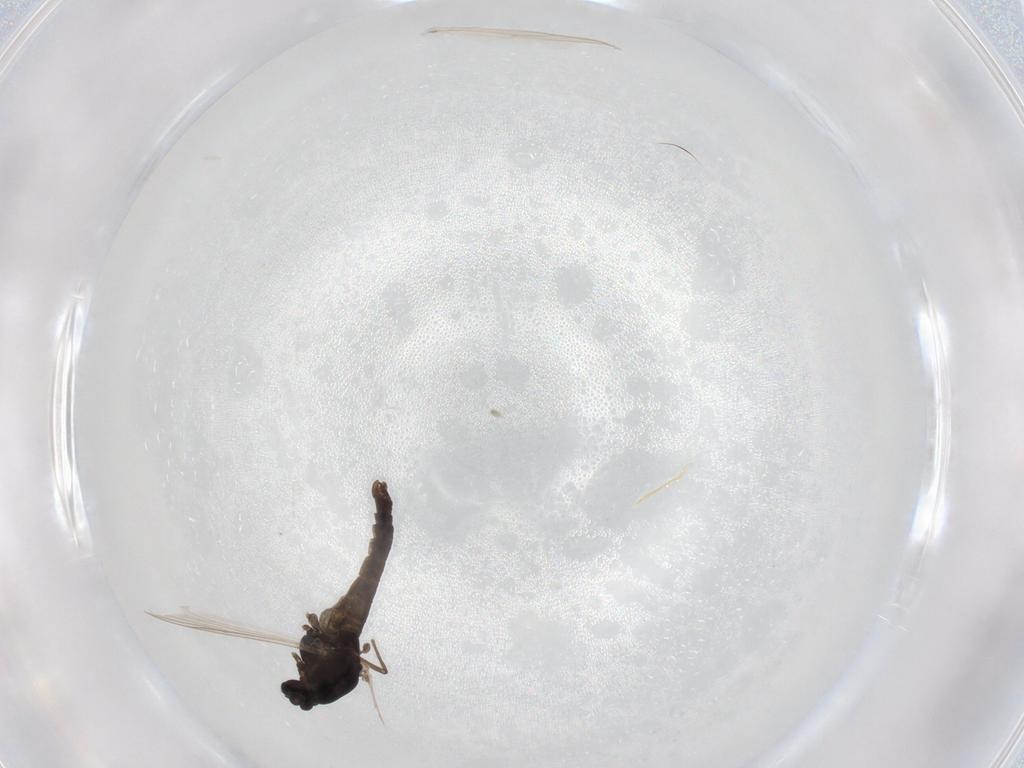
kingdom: Animalia
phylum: Arthropoda
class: Insecta
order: Diptera
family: Chironomidae
